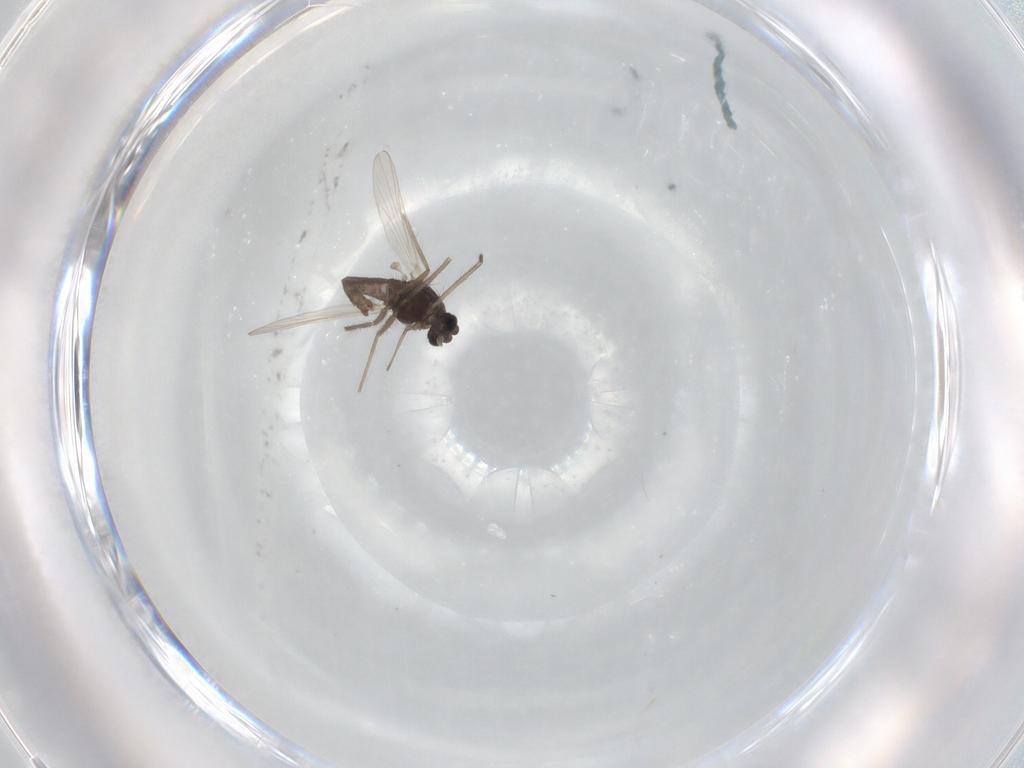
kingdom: Animalia
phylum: Arthropoda
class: Insecta
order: Diptera
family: Chironomidae
